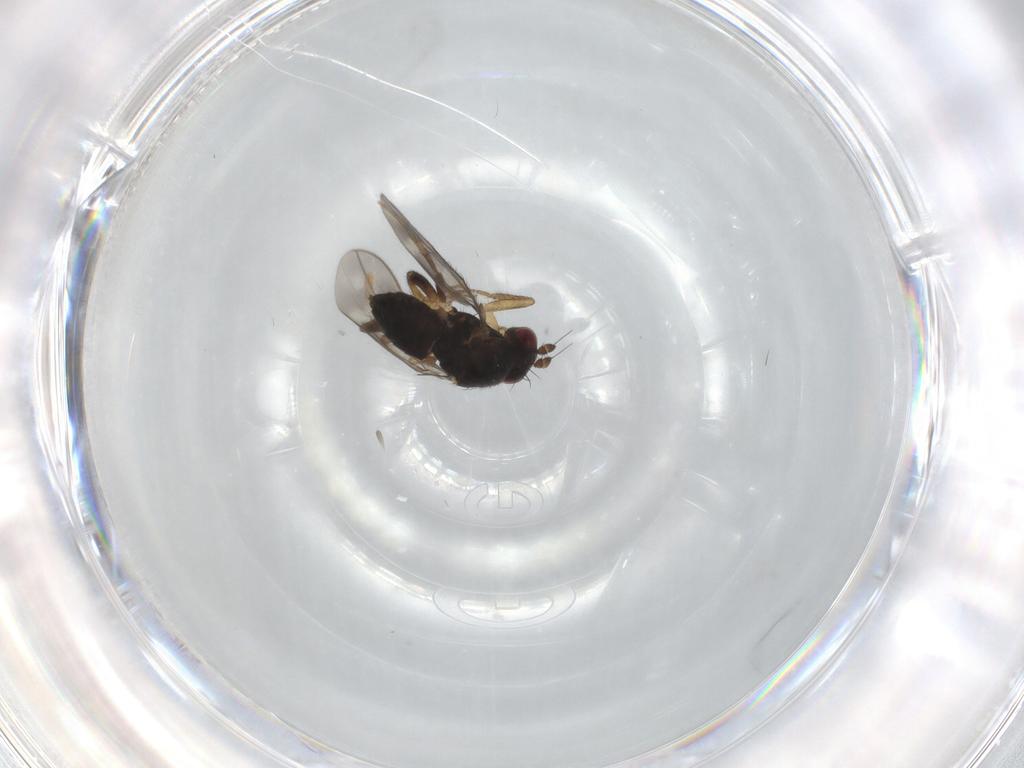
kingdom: Animalia
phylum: Arthropoda
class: Insecta
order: Diptera
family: Sphaeroceridae
